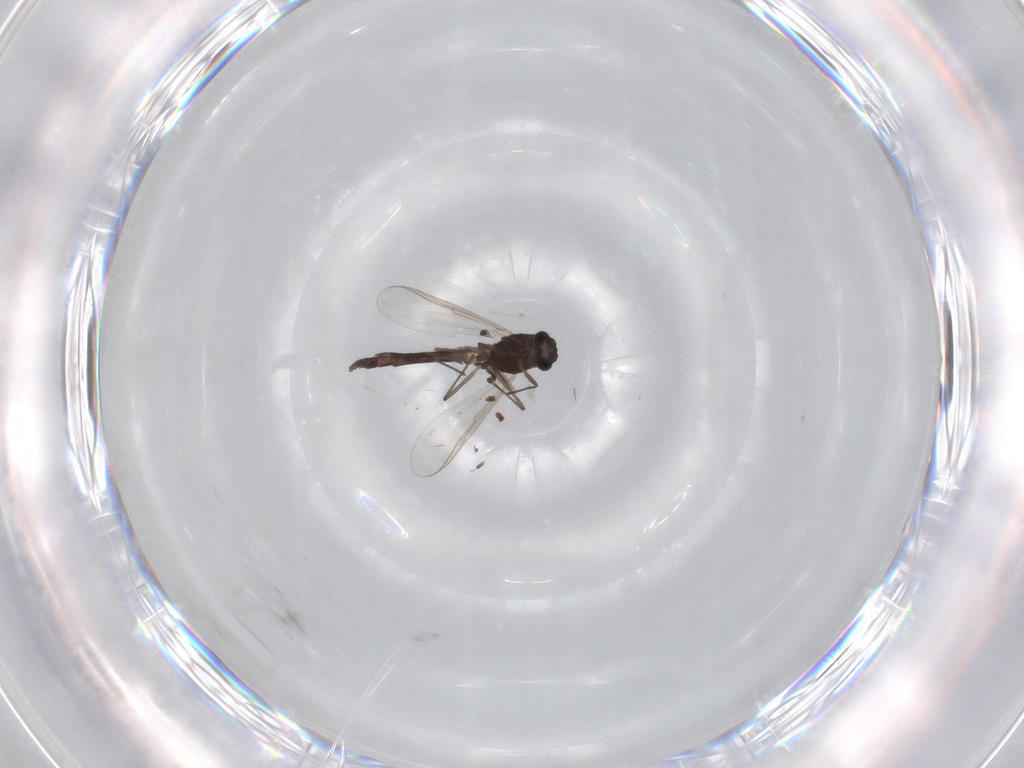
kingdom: Animalia
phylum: Arthropoda
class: Insecta
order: Diptera
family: Chironomidae
